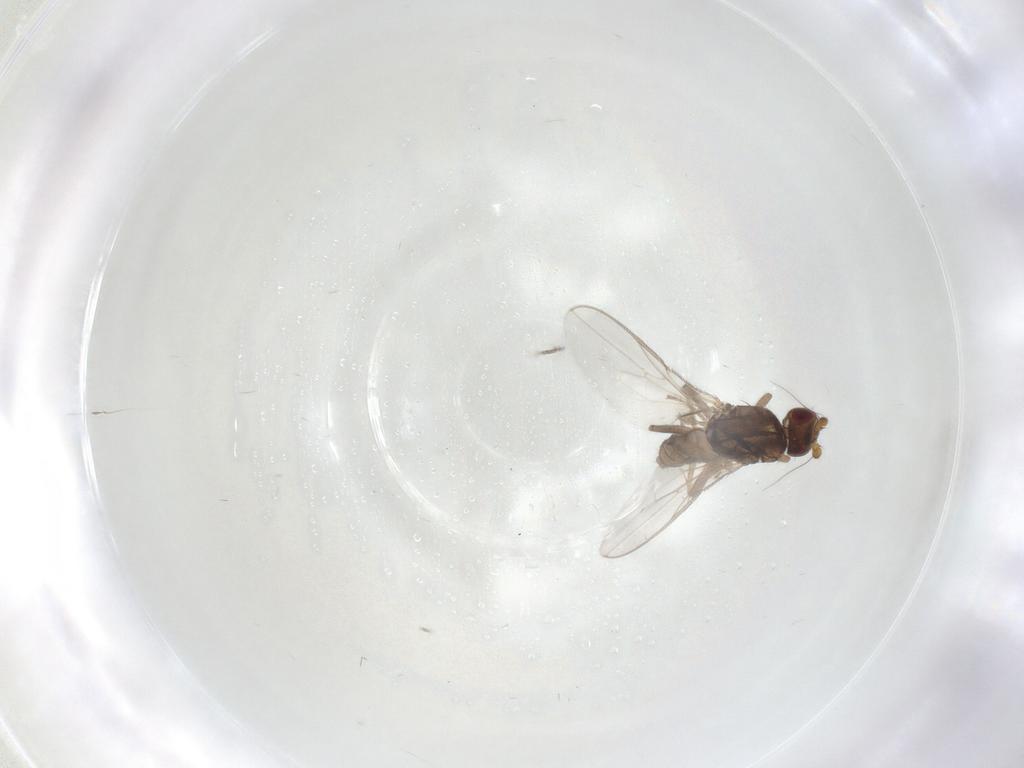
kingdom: Animalia
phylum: Arthropoda
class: Insecta
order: Diptera
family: Sphaeroceridae
